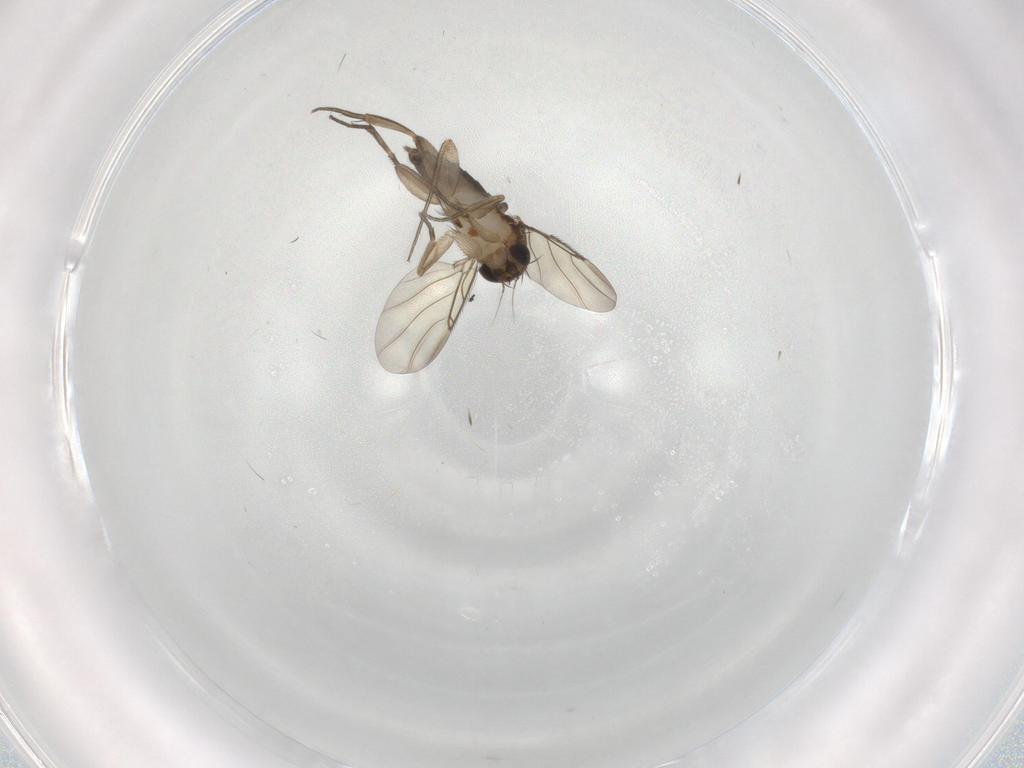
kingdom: Animalia
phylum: Arthropoda
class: Insecta
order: Diptera
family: Phoridae
